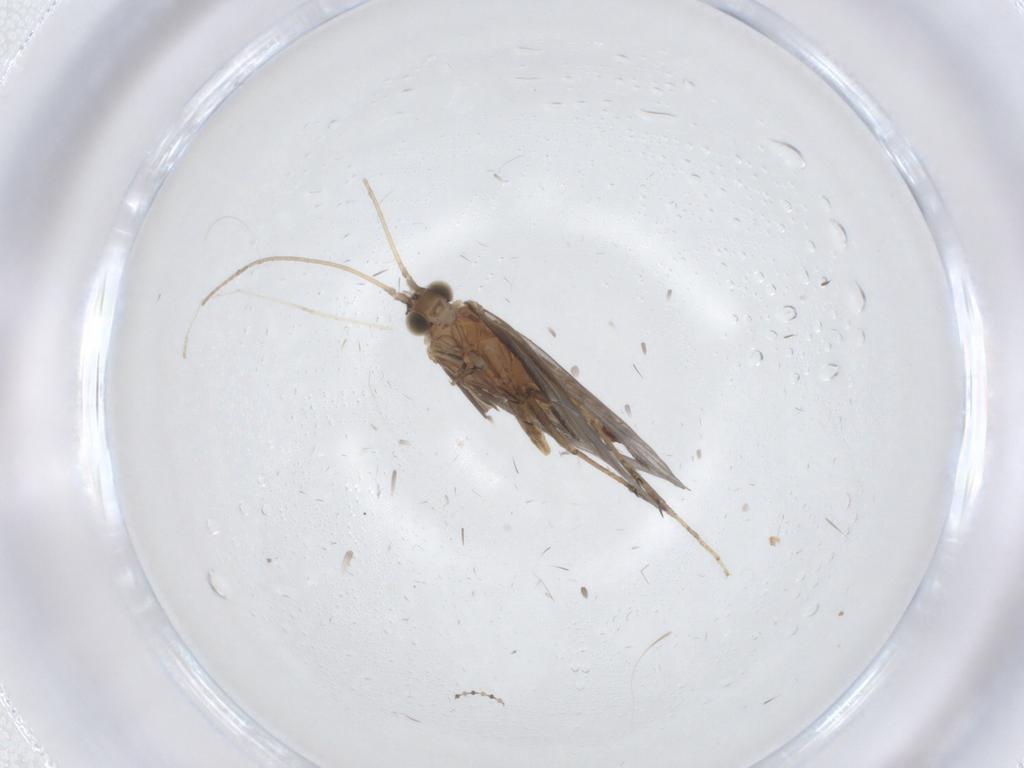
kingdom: Animalia
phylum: Arthropoda
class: Insecta
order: Trichoptera
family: Glossosomatidae
